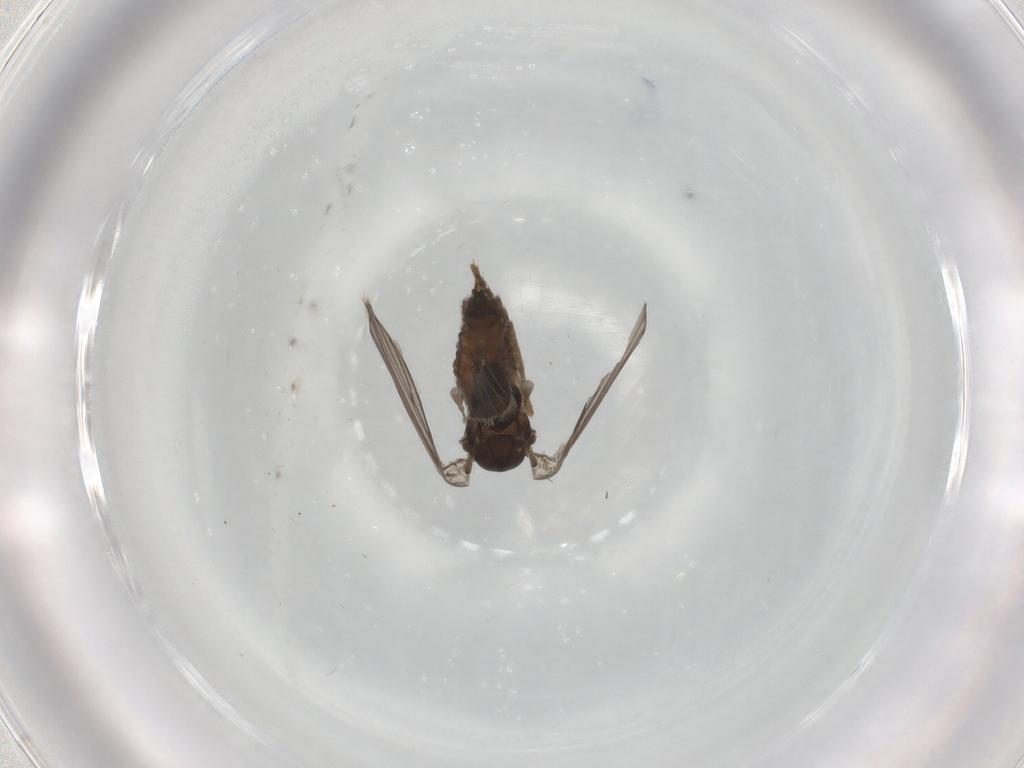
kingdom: Animalia
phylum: Arthropoda
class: Insecta
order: Diptera
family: Psychodidae
